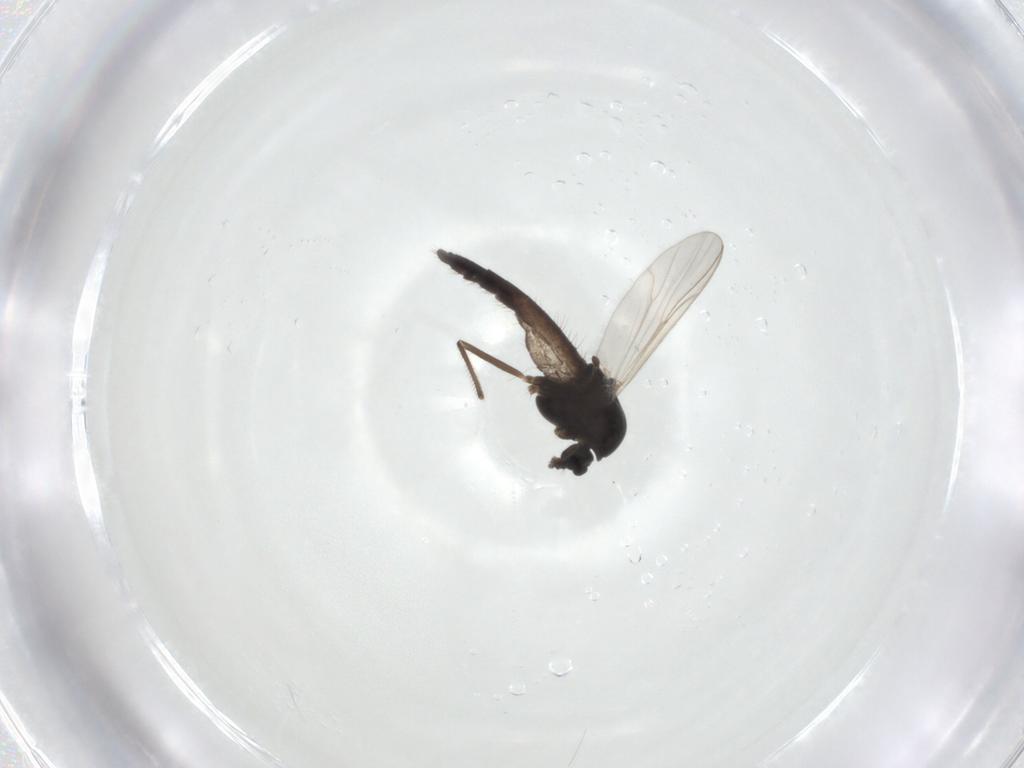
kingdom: Animalia
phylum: Arthropoda
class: Insecta
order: Diptera
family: Chironomidae
